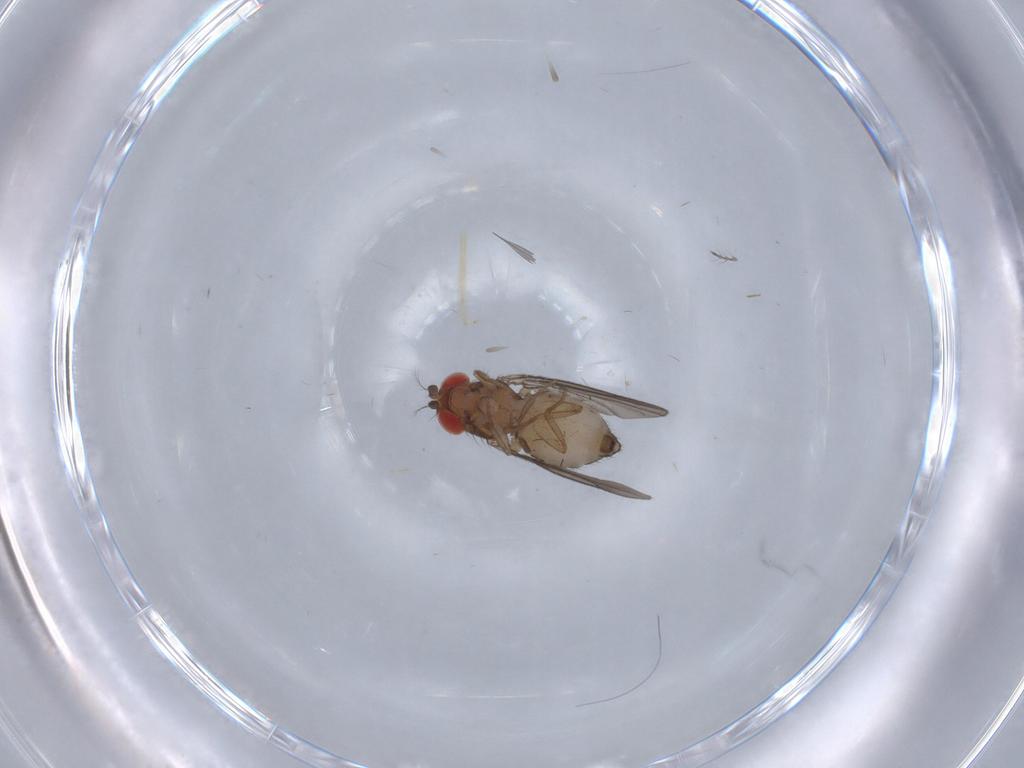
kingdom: Animalia
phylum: Arthropoda
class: Insecta
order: Diptera
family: Drosophilidae
